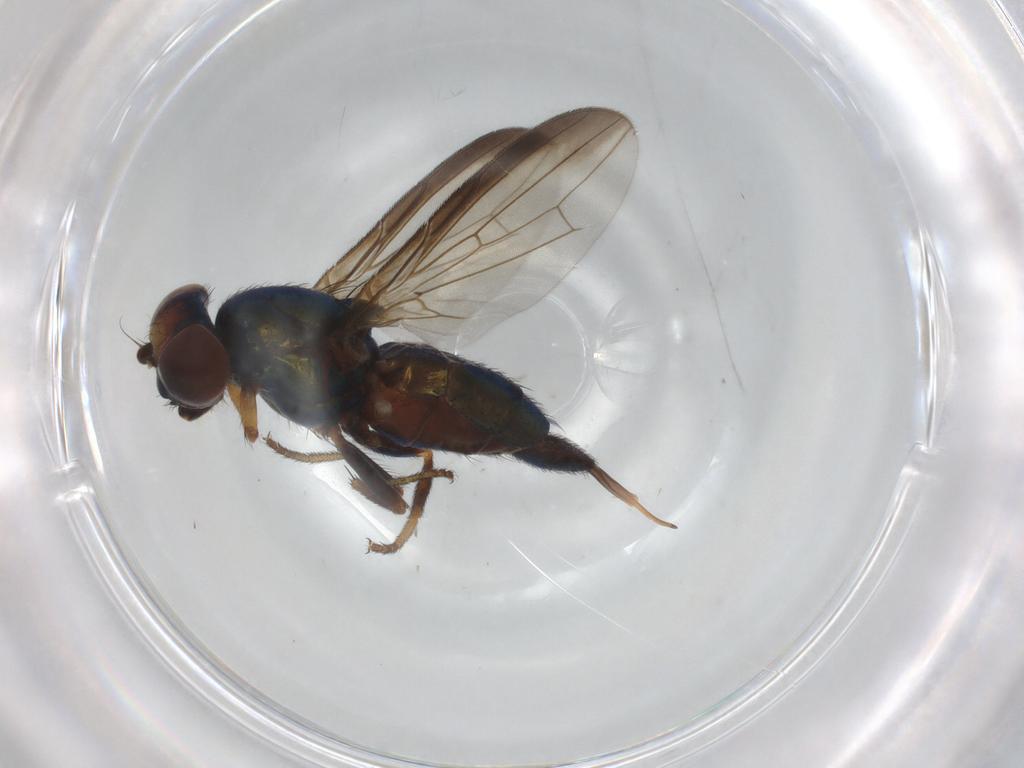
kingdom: Animalia
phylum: Arthropoda
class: Insecta
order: Diptera
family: Ulidiidae
